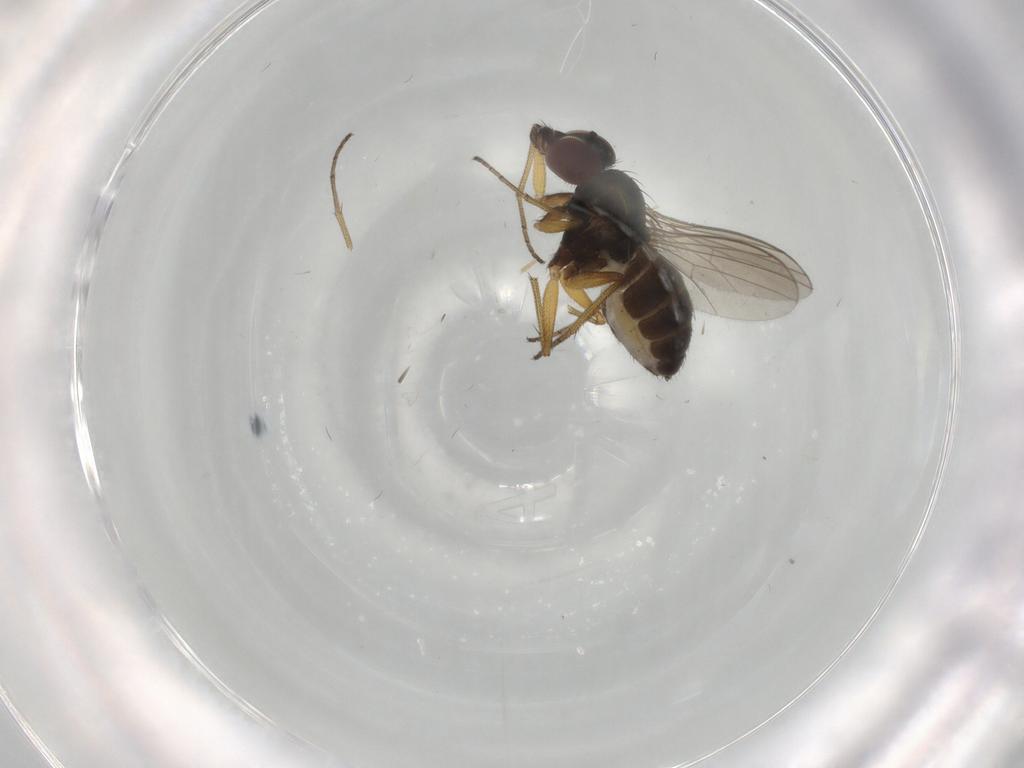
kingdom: Animalia
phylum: Arthropoda
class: Insecta
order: Diptera
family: Dolichopodidae
